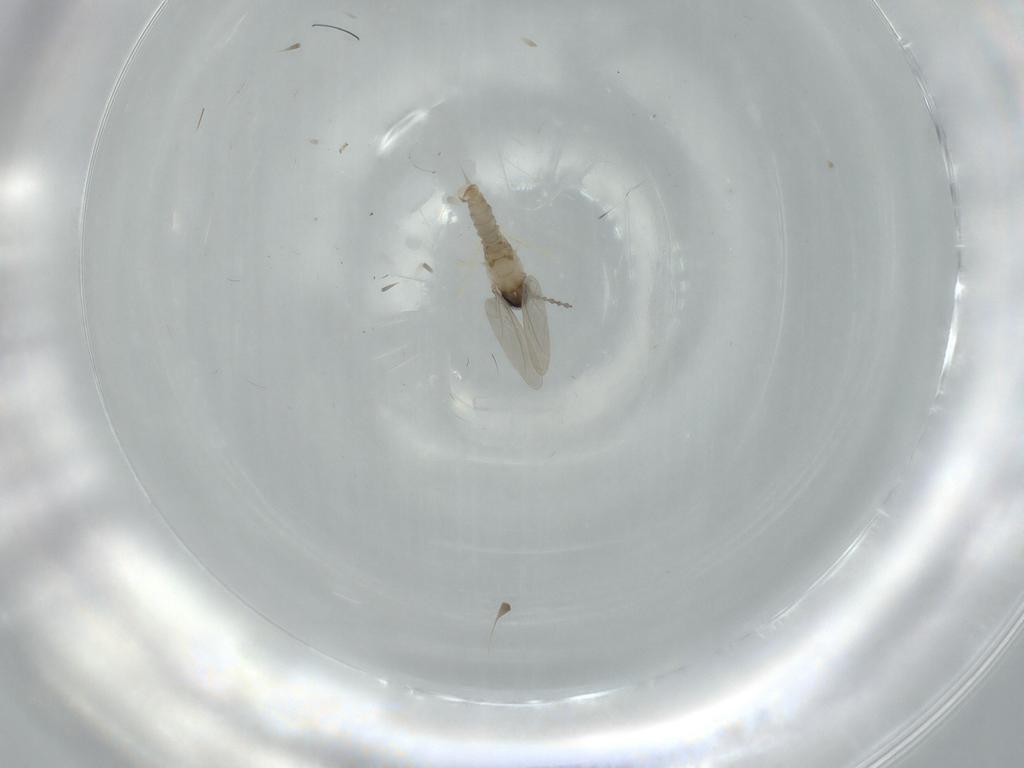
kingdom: Animalia
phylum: Arthropoda
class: Insecta
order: Diptera
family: Cecidomyiidae
